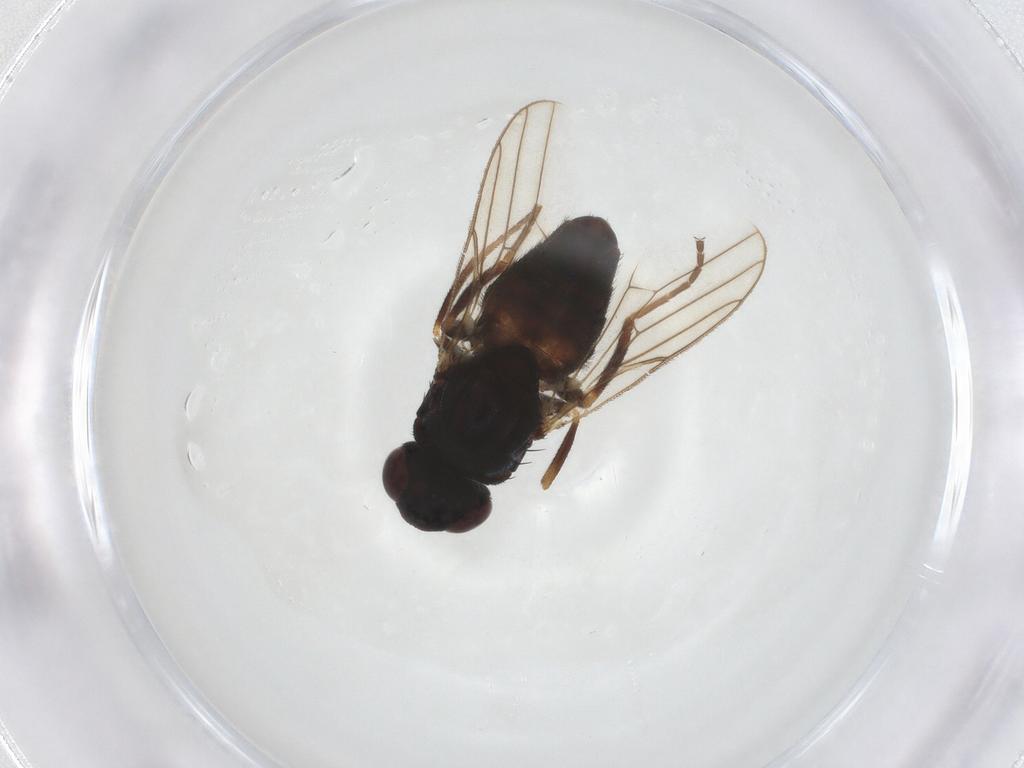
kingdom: Animalia
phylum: Arthropoda
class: Insecta
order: Diptera
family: Chloropidae
